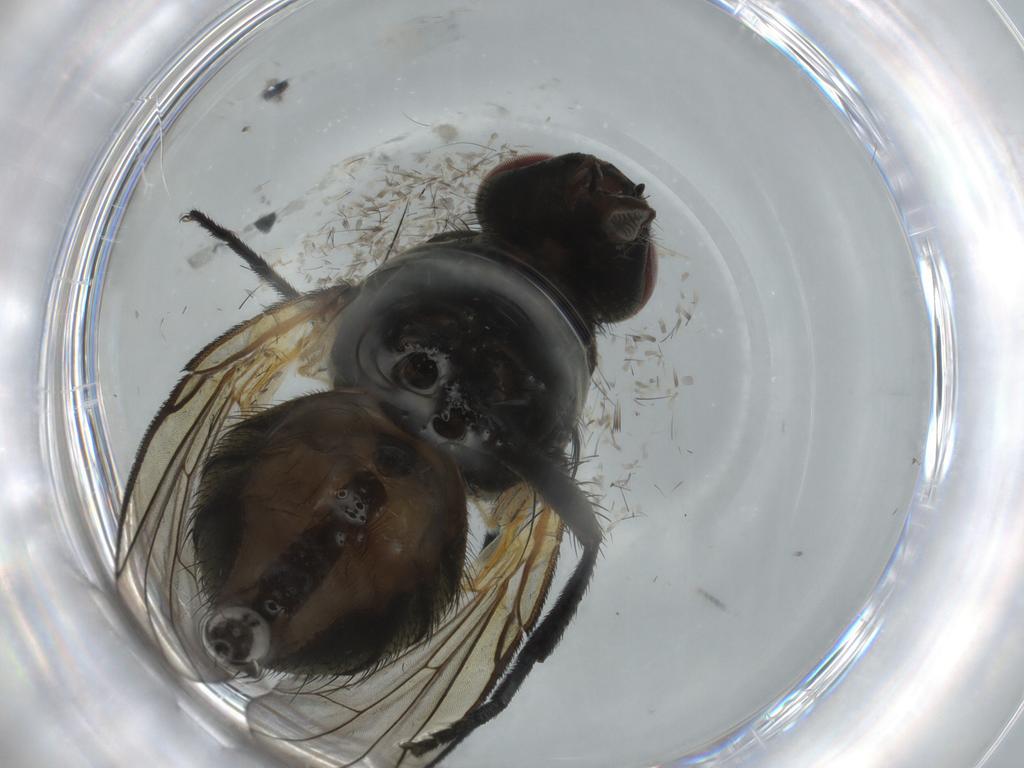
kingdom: Animalia
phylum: Arthropoda
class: Insecta
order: Diptera
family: Muscidae
